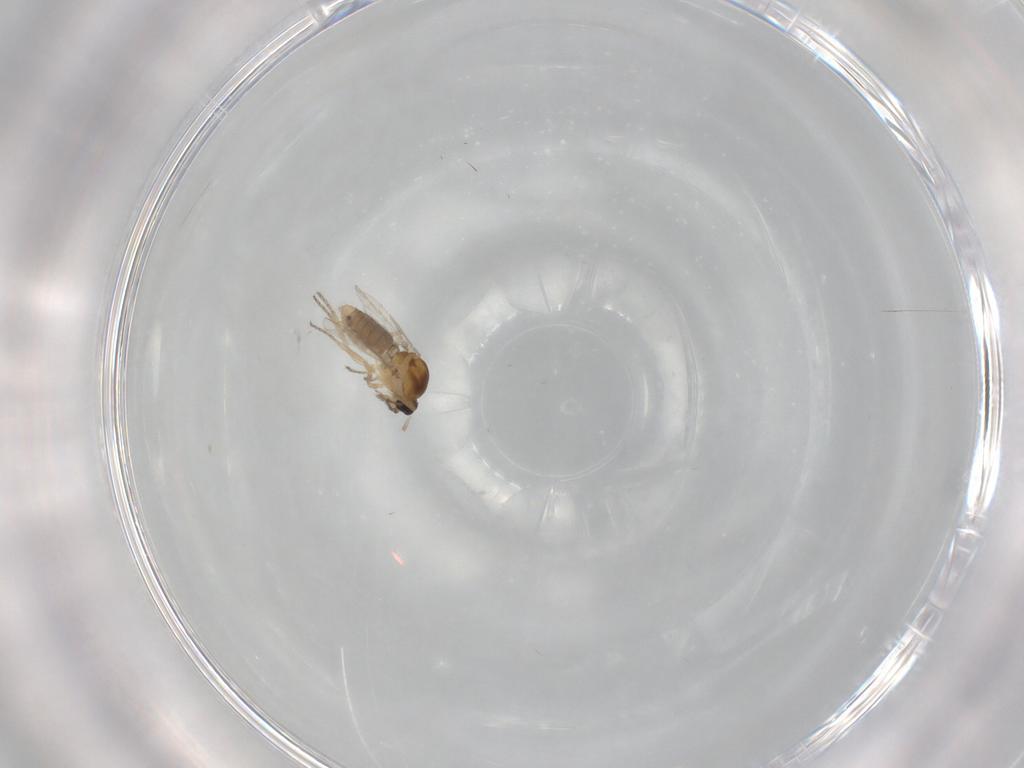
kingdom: Animalia
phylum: Arthropoda
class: Insecta
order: Diptera
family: Ceratopogonidae
